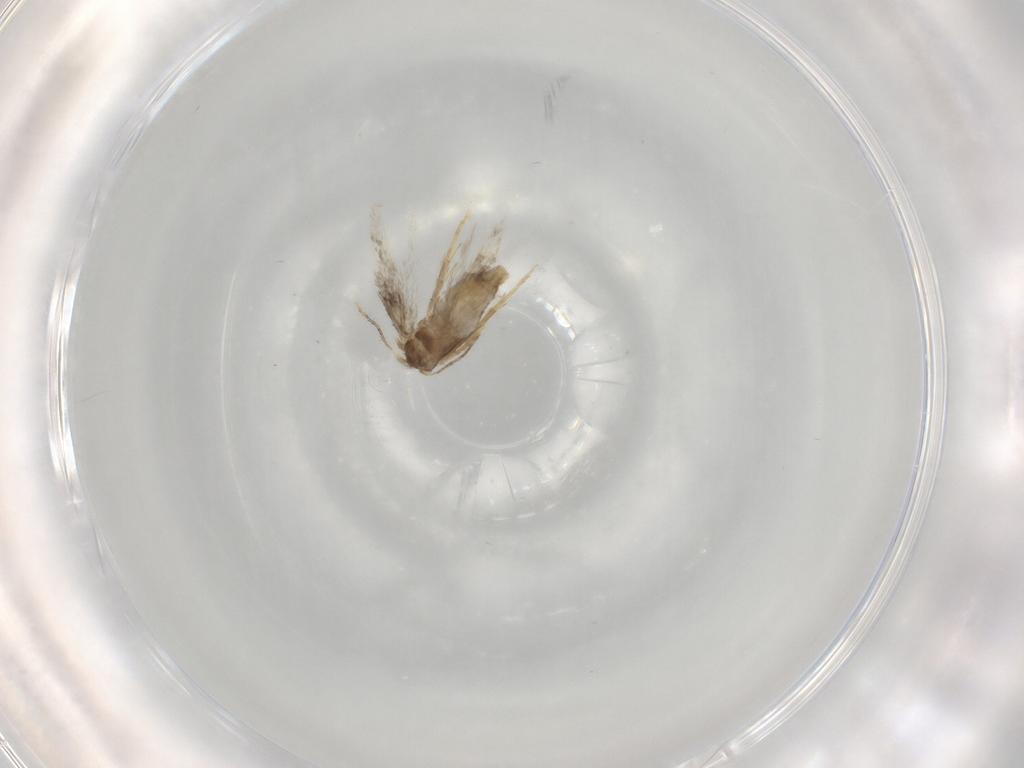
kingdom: Animalia
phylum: Arthropoda
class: Insecta
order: Lepidoptera
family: Nepticulidae
